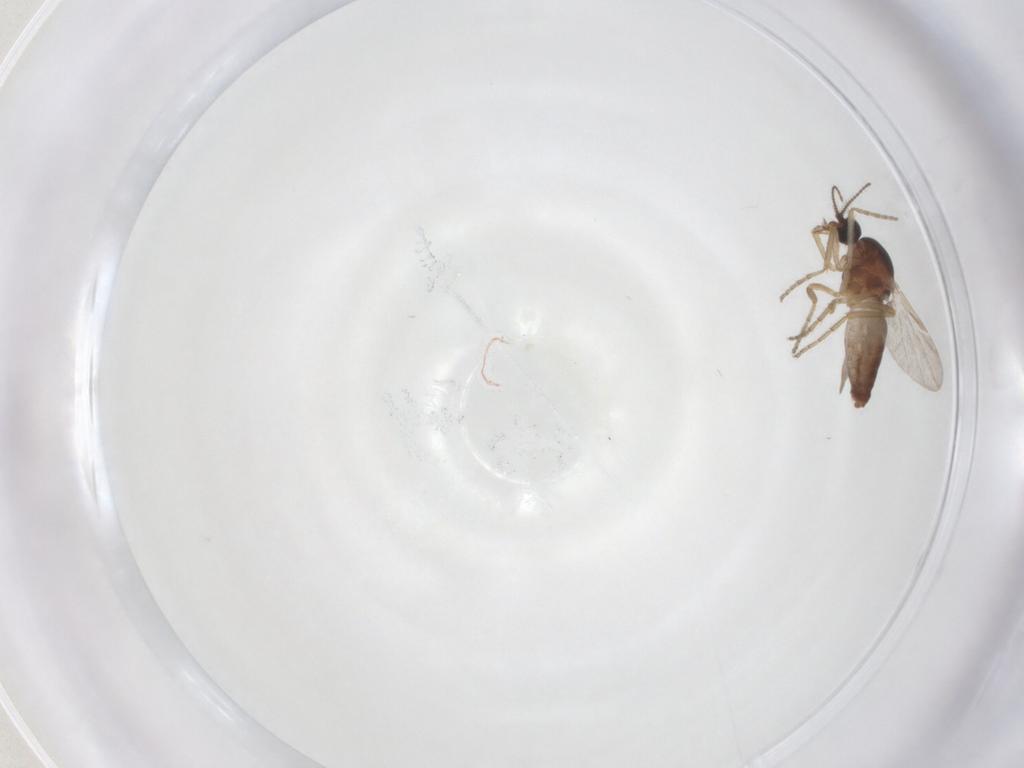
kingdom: Animalia
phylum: Arthropoda
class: Insecta
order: Diptera
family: Ceratopogonidae
